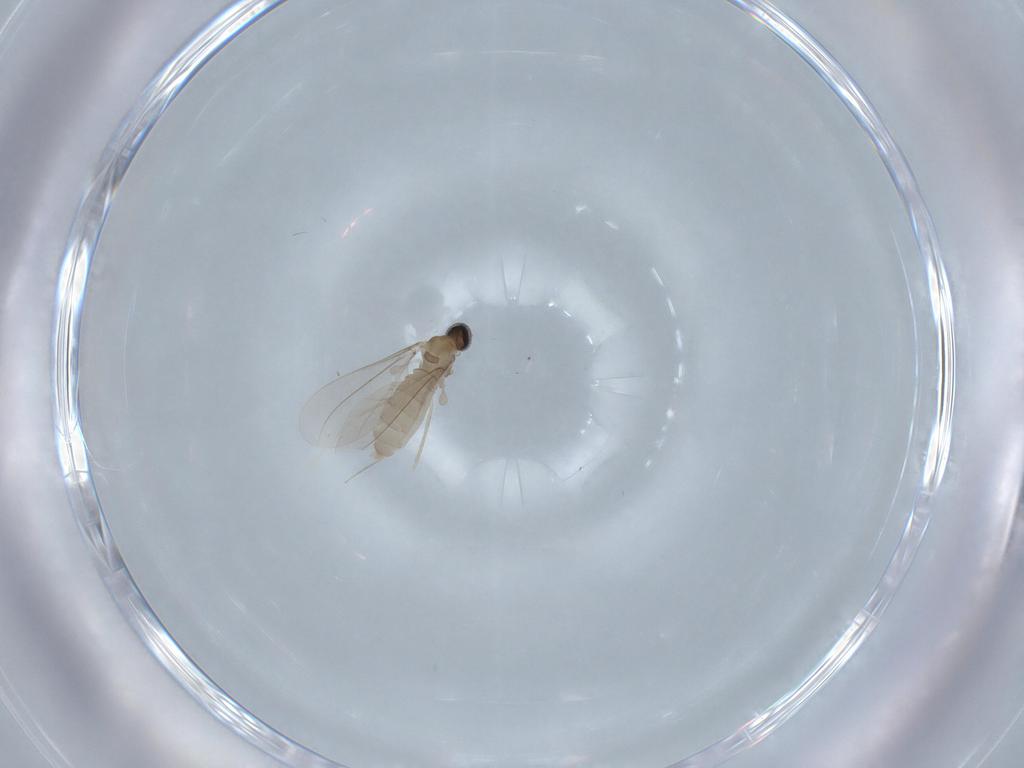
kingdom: Animalia
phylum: Arthropoda
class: Insecta
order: Diptera
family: Cecidomyiidae
